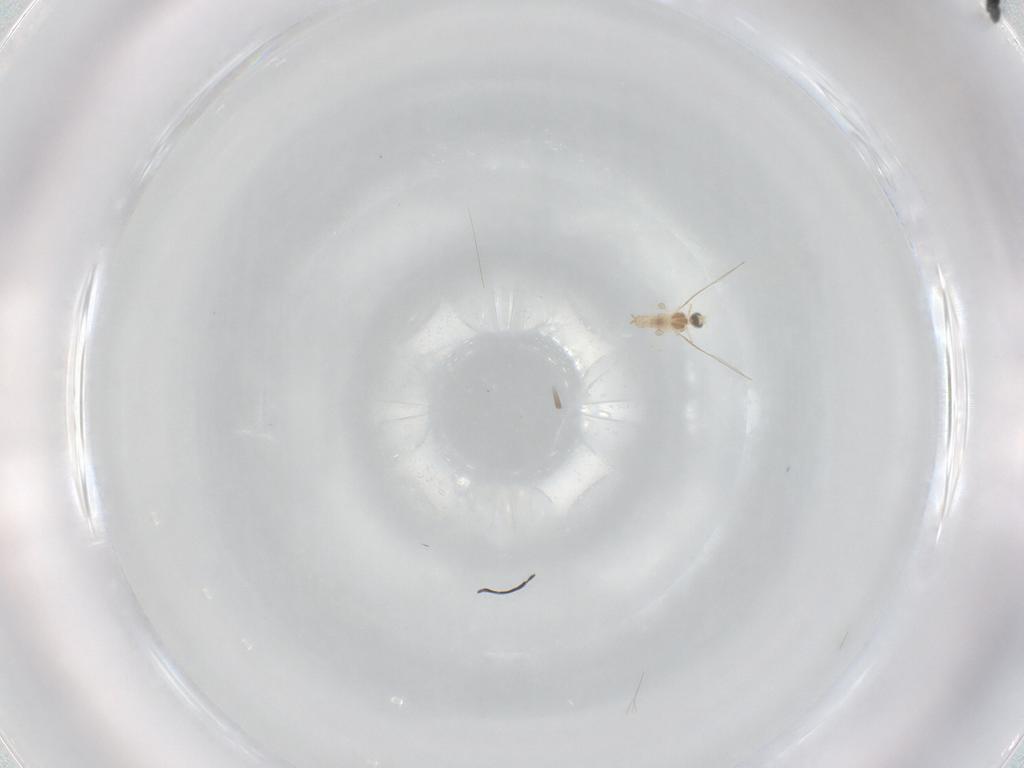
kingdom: Animalia
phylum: Arthropoda
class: Insecta
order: Diptera
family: Cecidomyiidae
